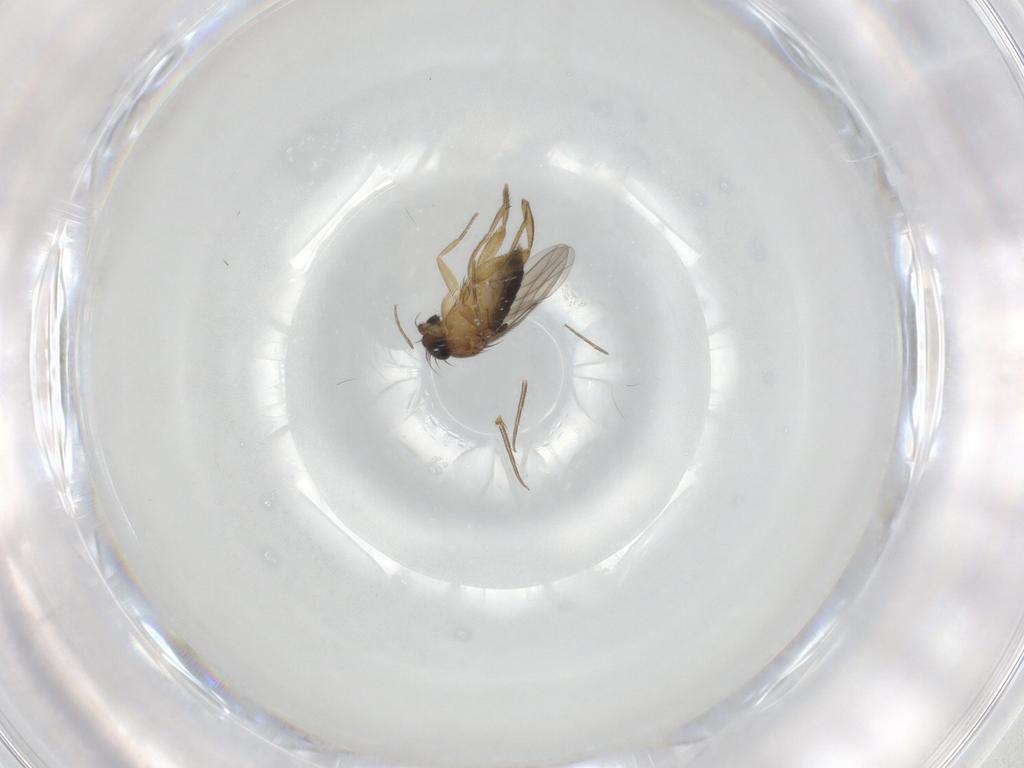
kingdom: Animalia
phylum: Arthropoda
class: Insecta
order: Diptera
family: Phoridae
